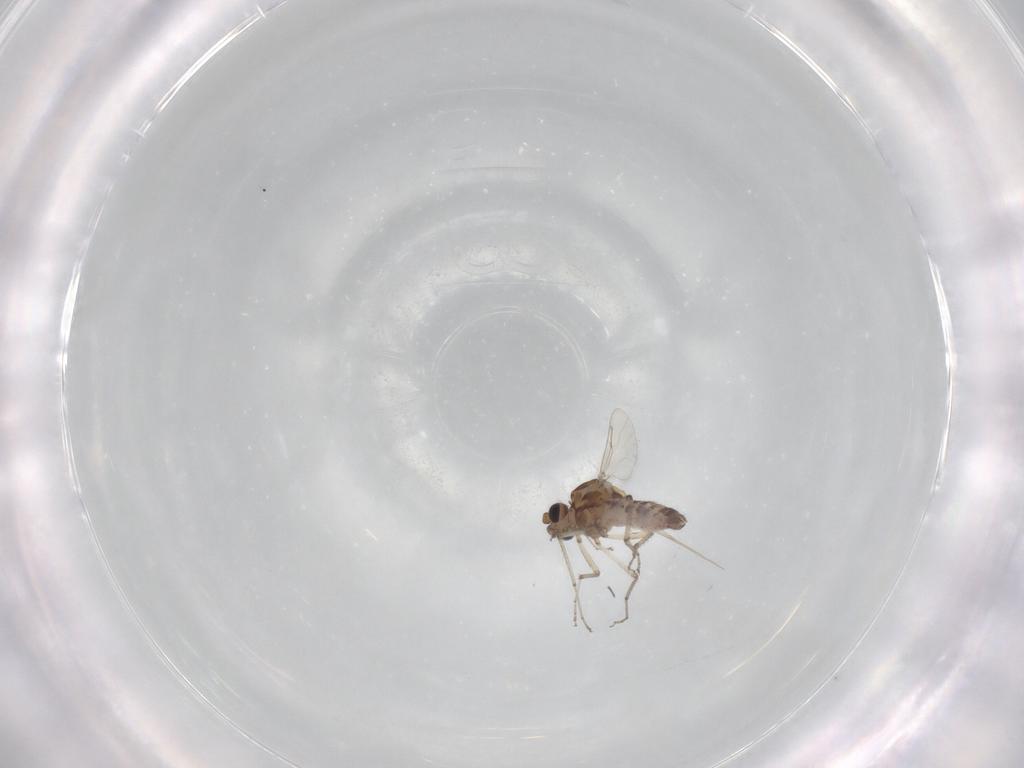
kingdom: Animalia
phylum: Arthropoda
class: Insecta
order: Diptera
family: Ceratopogonidae
